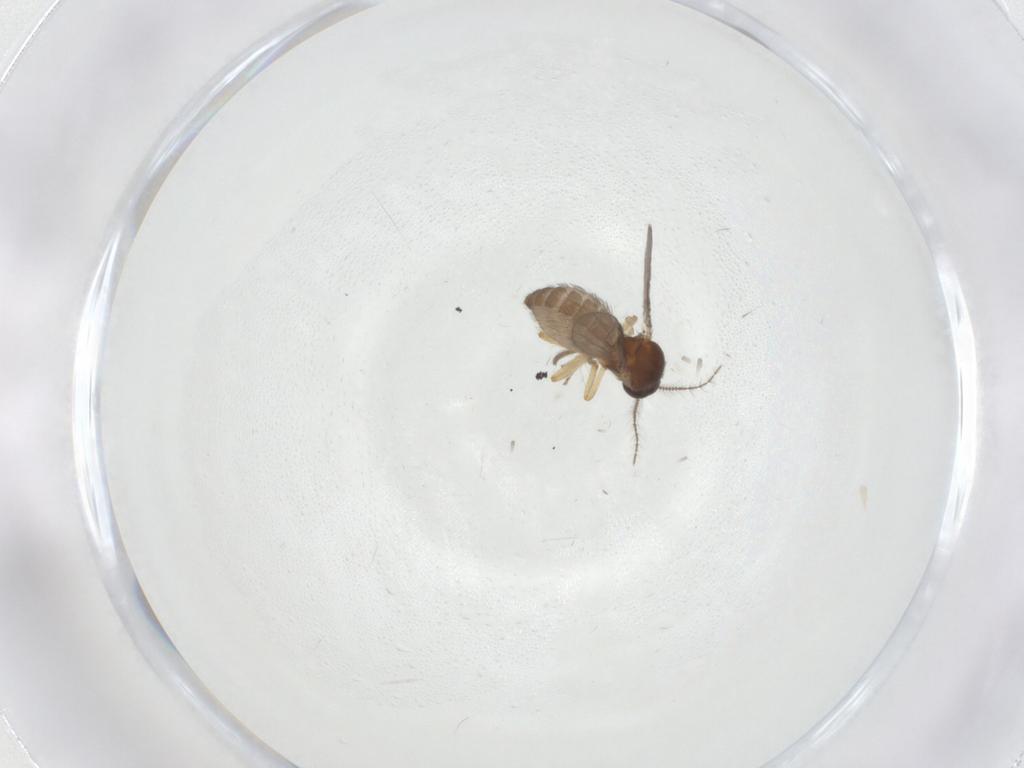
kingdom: Animalia
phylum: Arthropoda
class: Insecta
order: Diptera
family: Ceratopogonidae
